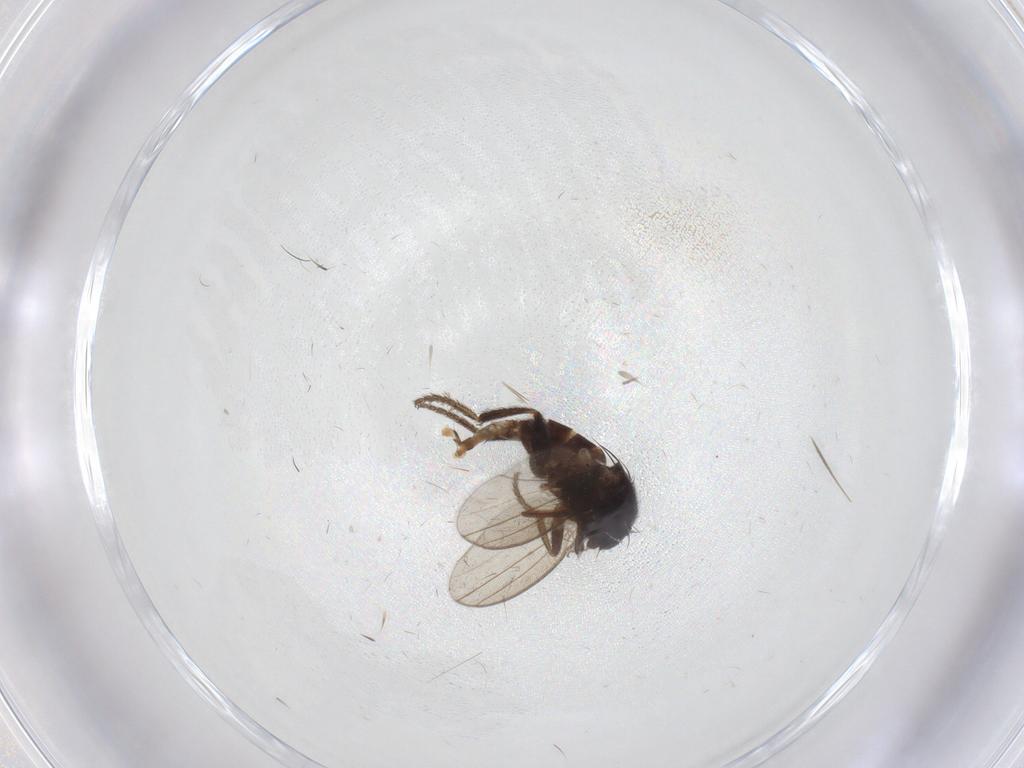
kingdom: Animalia
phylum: Arthropoda
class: Insecta
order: Diptera
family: Milichiidae
